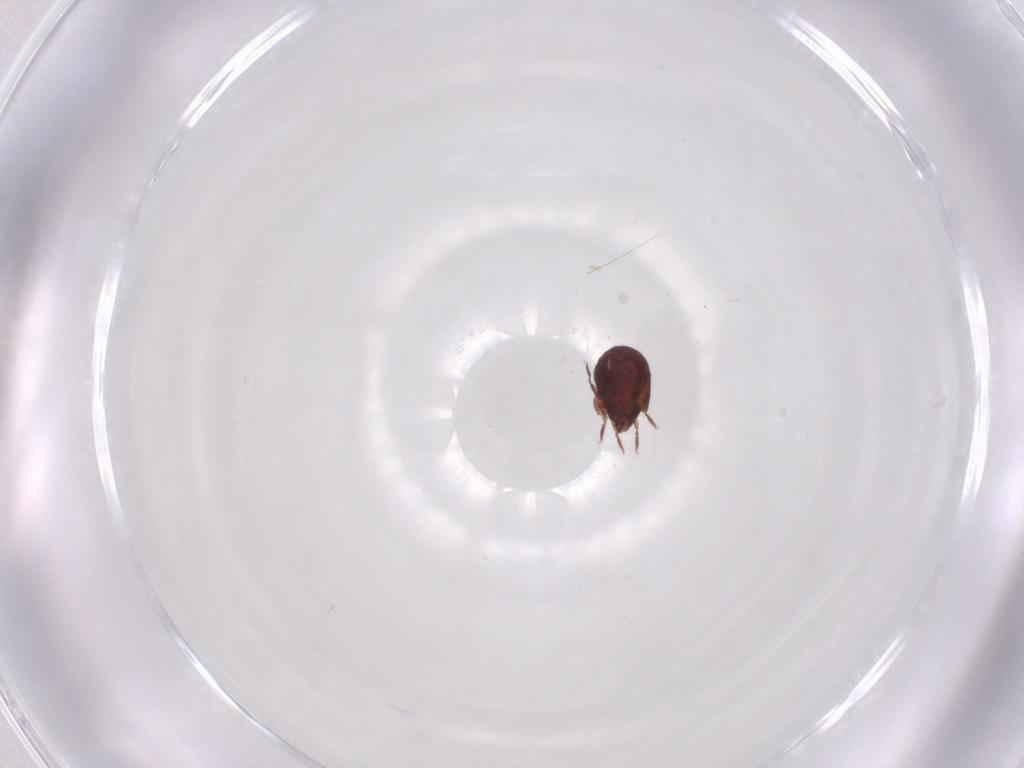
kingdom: Animalia
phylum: Arthropoda
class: Arachnida
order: Sarcoptiformes
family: Humerobatidae
